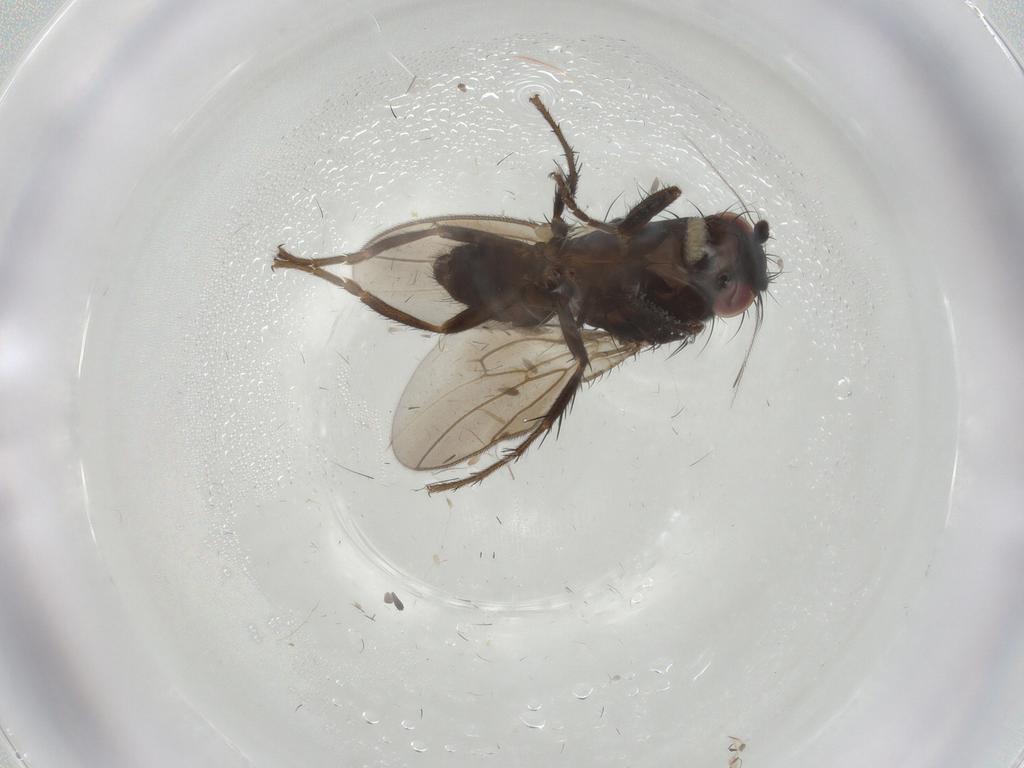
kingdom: Animalia
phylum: Arthropoda
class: Insecta
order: Diptera
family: Sphaeroceridae
